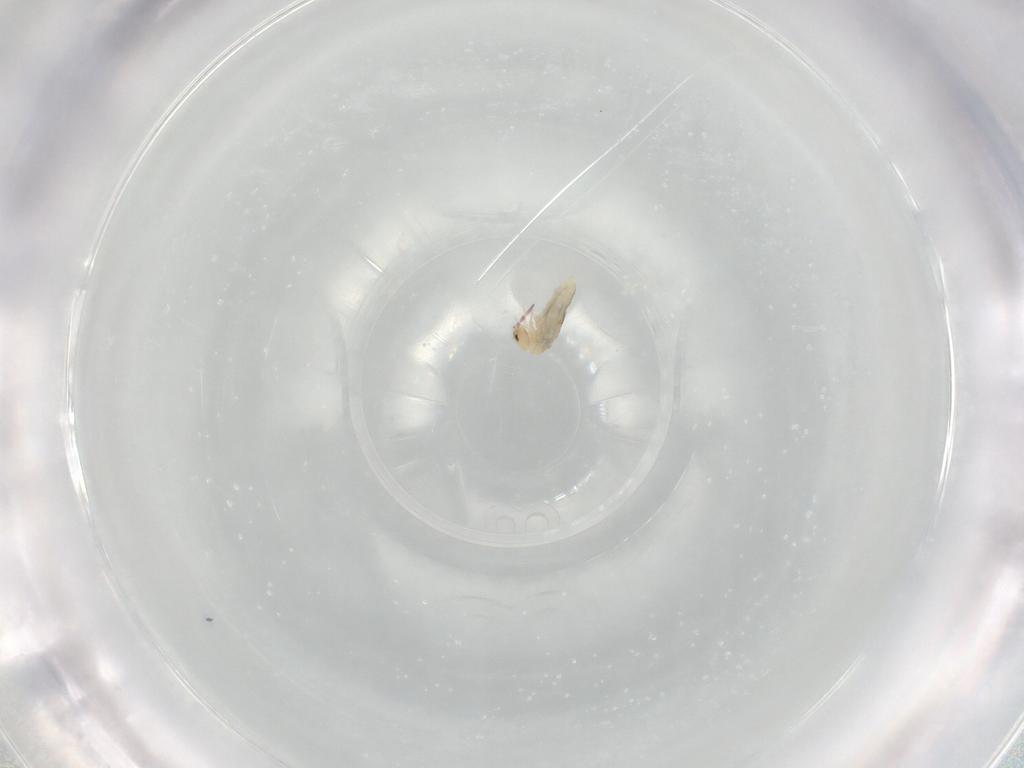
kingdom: Animalia
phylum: Arthropoda
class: Collembola
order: Entomobryomorpha
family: Entomobryidae
